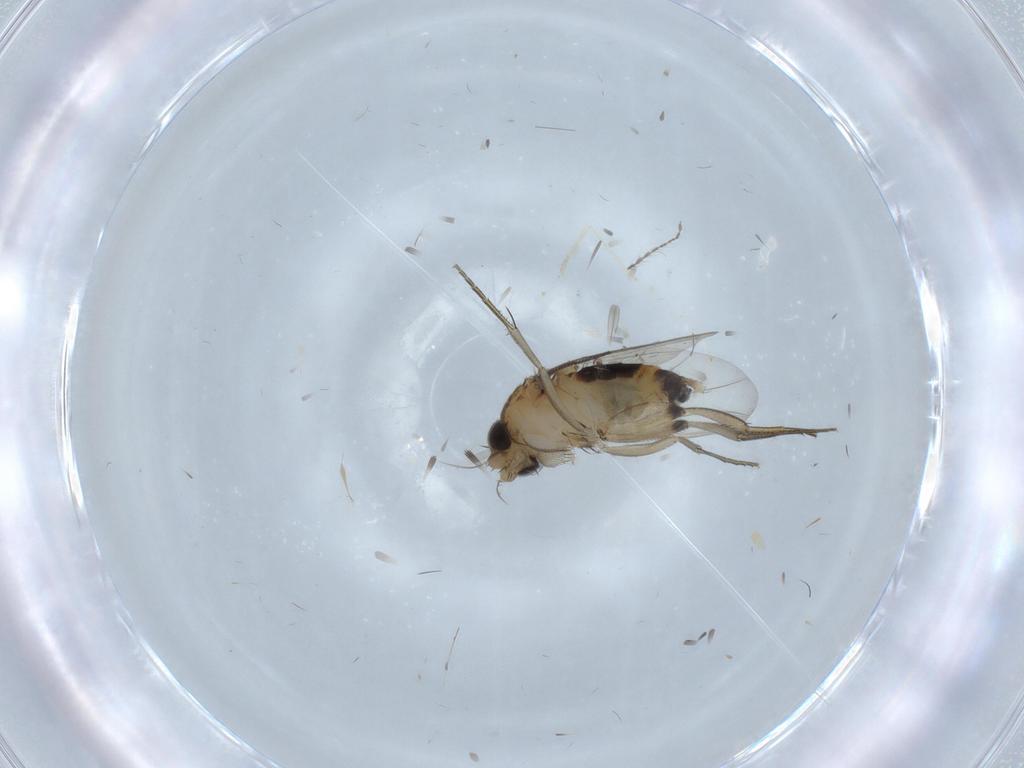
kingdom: Animalia
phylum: Arthropoda
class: Insecta
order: Diptera
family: Phoridae
